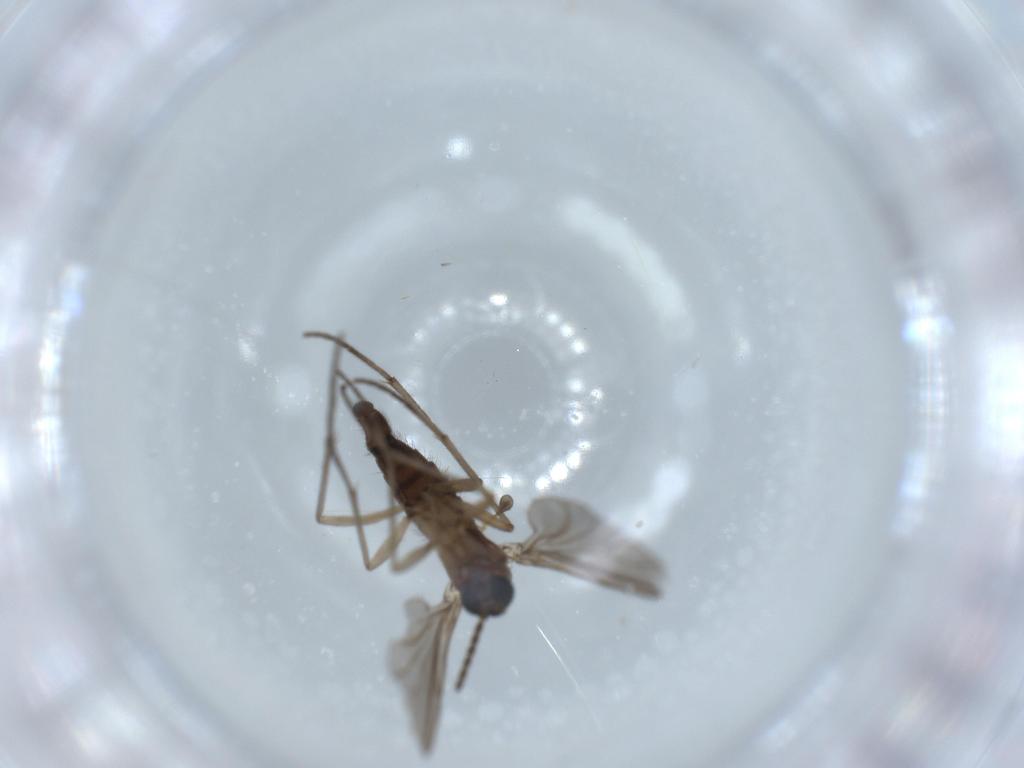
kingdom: Animalia
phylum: Arthropoda
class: Insecta
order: Diptera
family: Sciaridae
